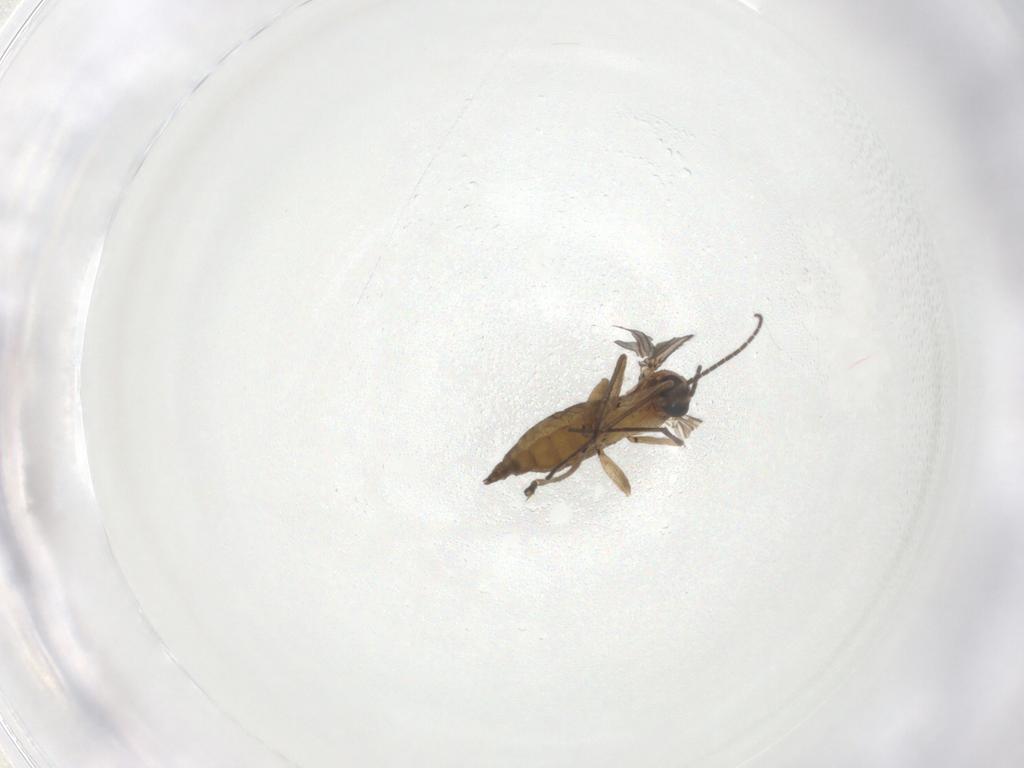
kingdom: Animalia
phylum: Arthropoda
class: Insecta
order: Diptera
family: Sciaridae
